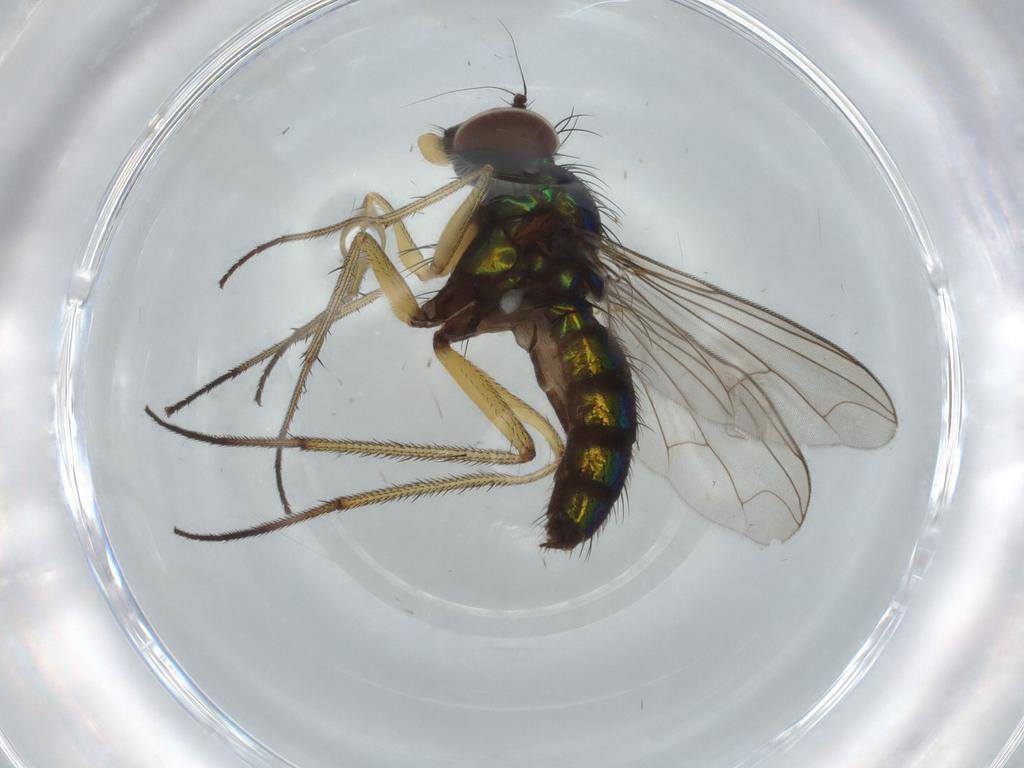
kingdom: Animalia
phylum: Arthropoda
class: Insecta
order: Diptera
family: Dolichopodidae
